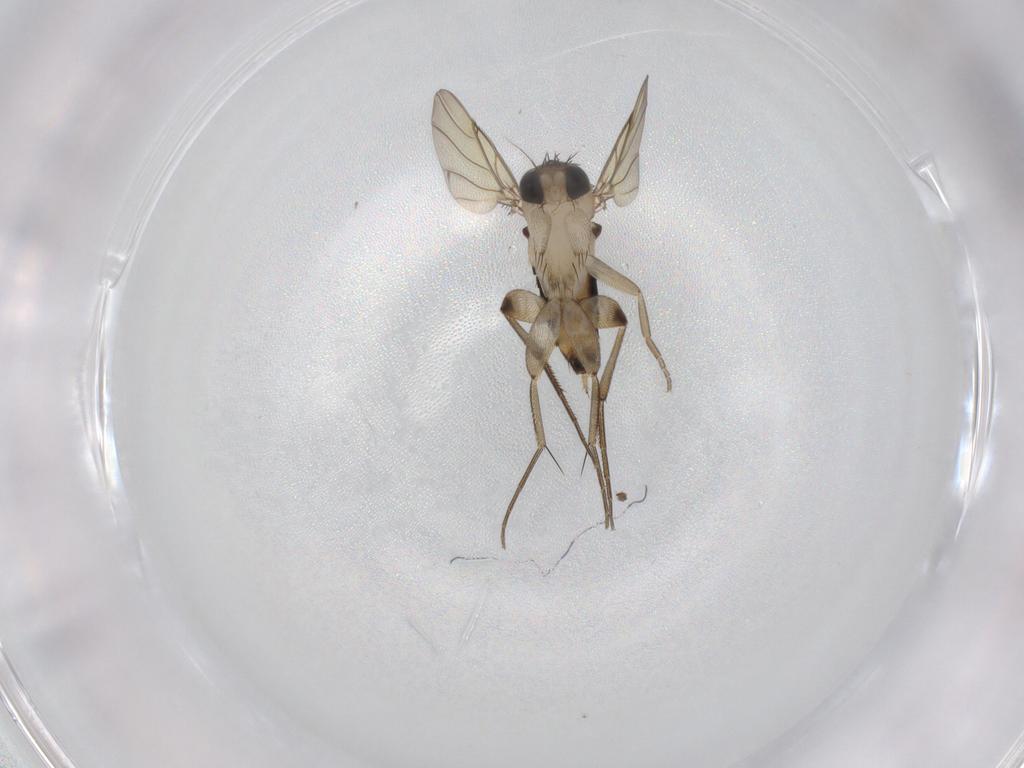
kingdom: Animalia
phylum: Arthropoda
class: Insecta
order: Diptera
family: Phoridae
